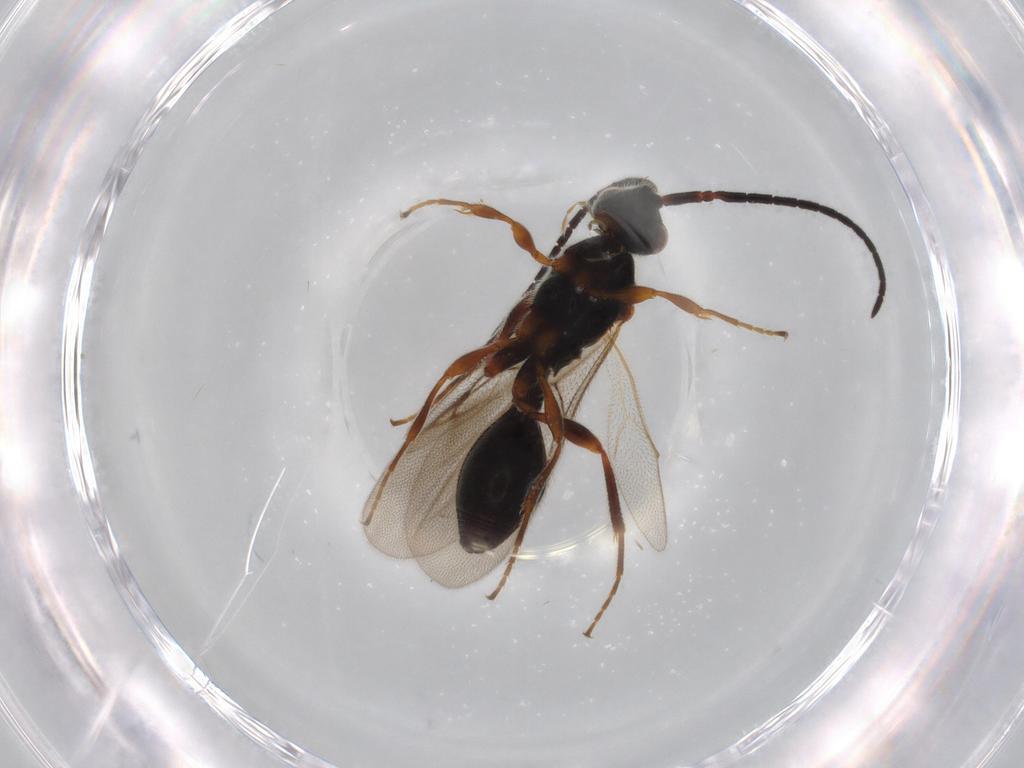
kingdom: Animalia
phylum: Arthropoda
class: Insecta
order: Hymenoptera
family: Diapriidae
